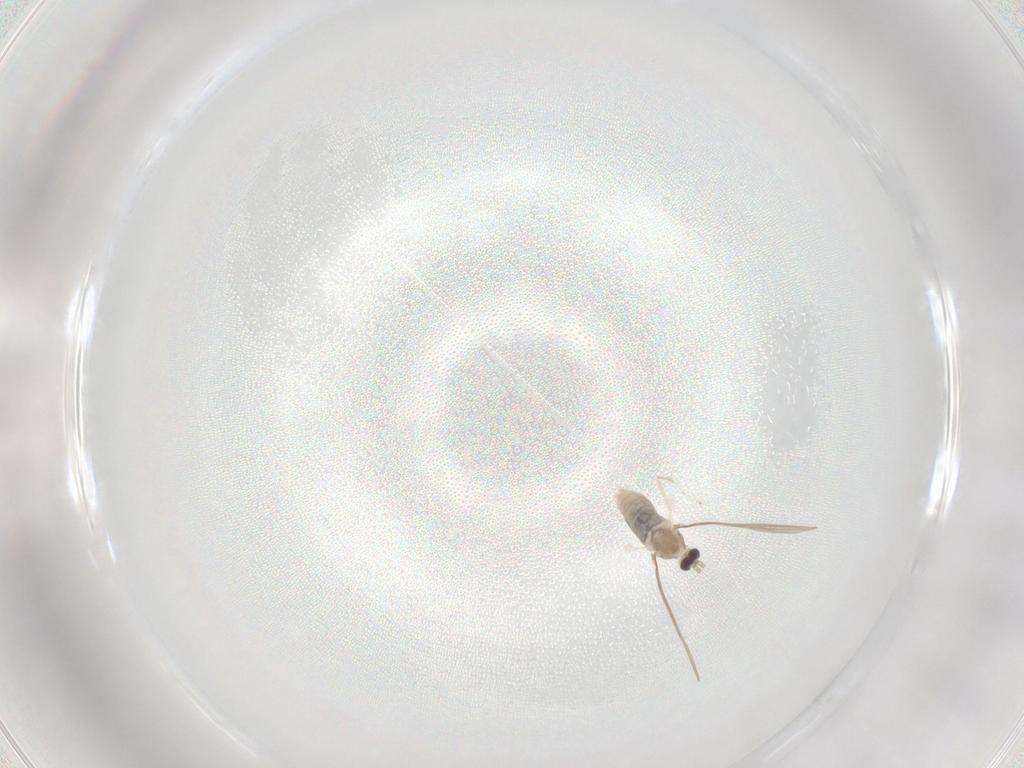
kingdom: Animalia
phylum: Arthropoda
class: Insecta
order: Diptera
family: Cecidomyiidae
